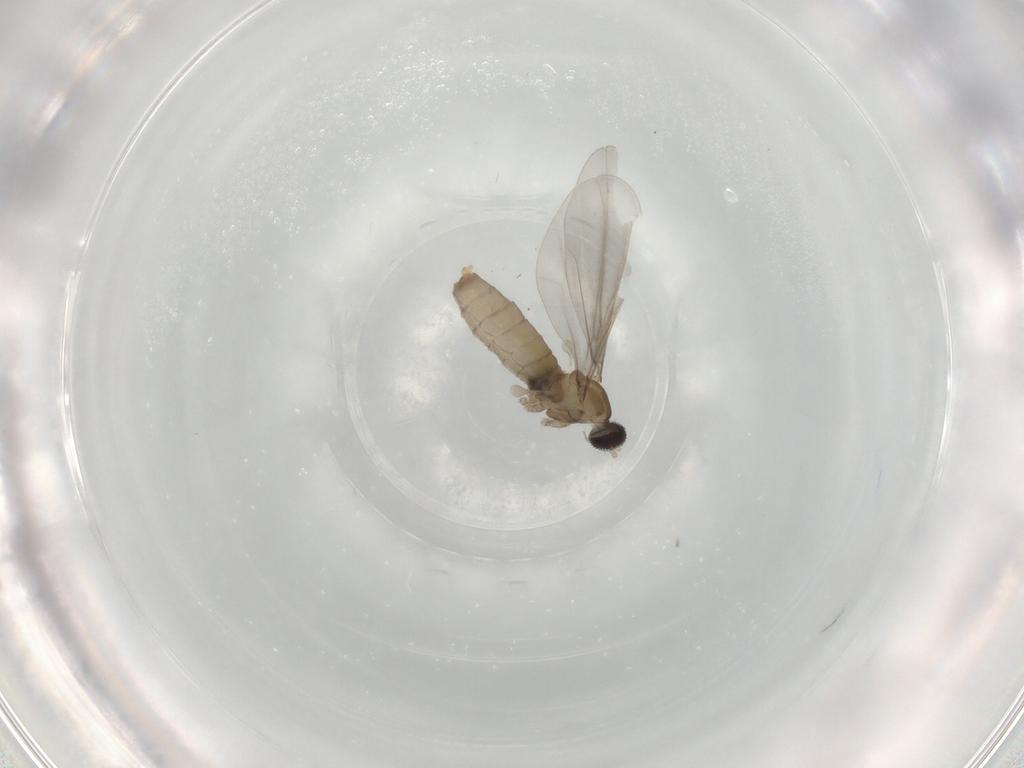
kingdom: Animalia
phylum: Arthropoda
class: Insecta
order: Diptera
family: Cecidomyiidae
